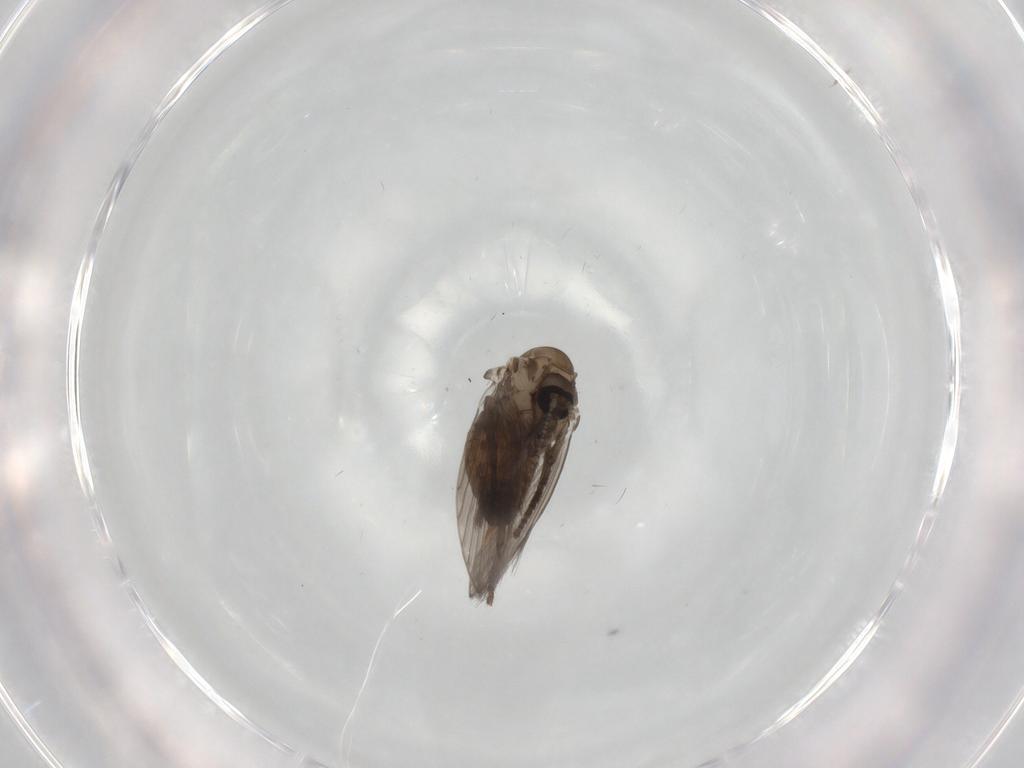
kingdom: Animalia
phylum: Arthropoda
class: Insecta
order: Diptera
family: Psychodidae
